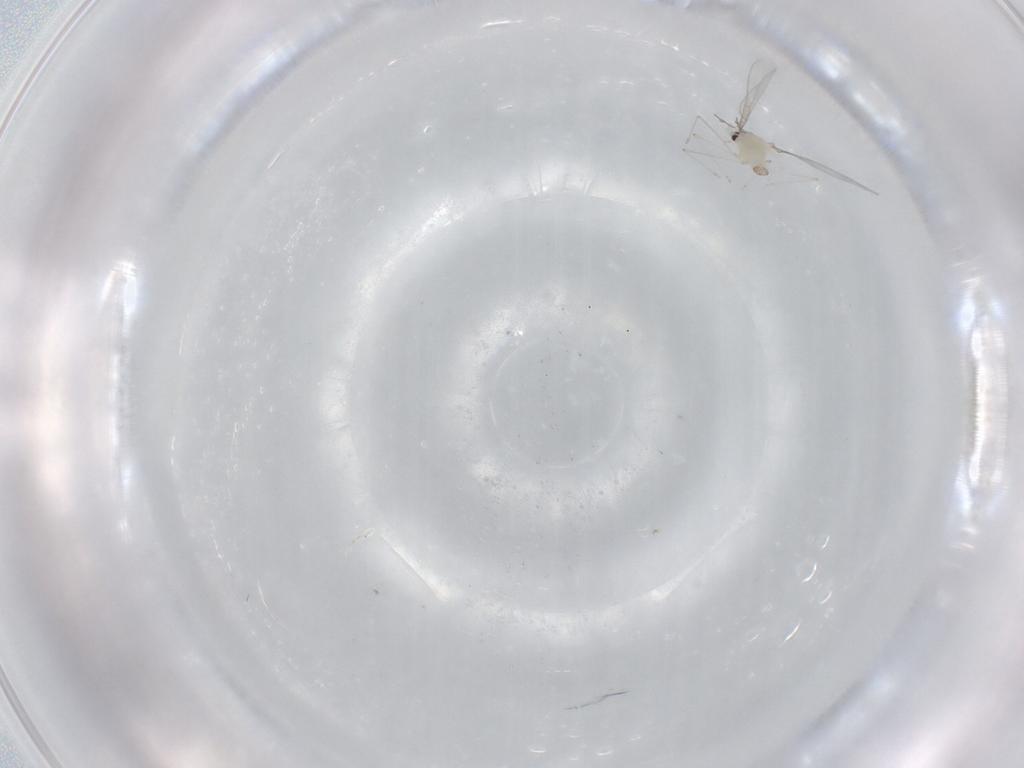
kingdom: Animalia
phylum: Arthropoda
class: Insecta
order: Diptera
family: Cecidomyiidae
